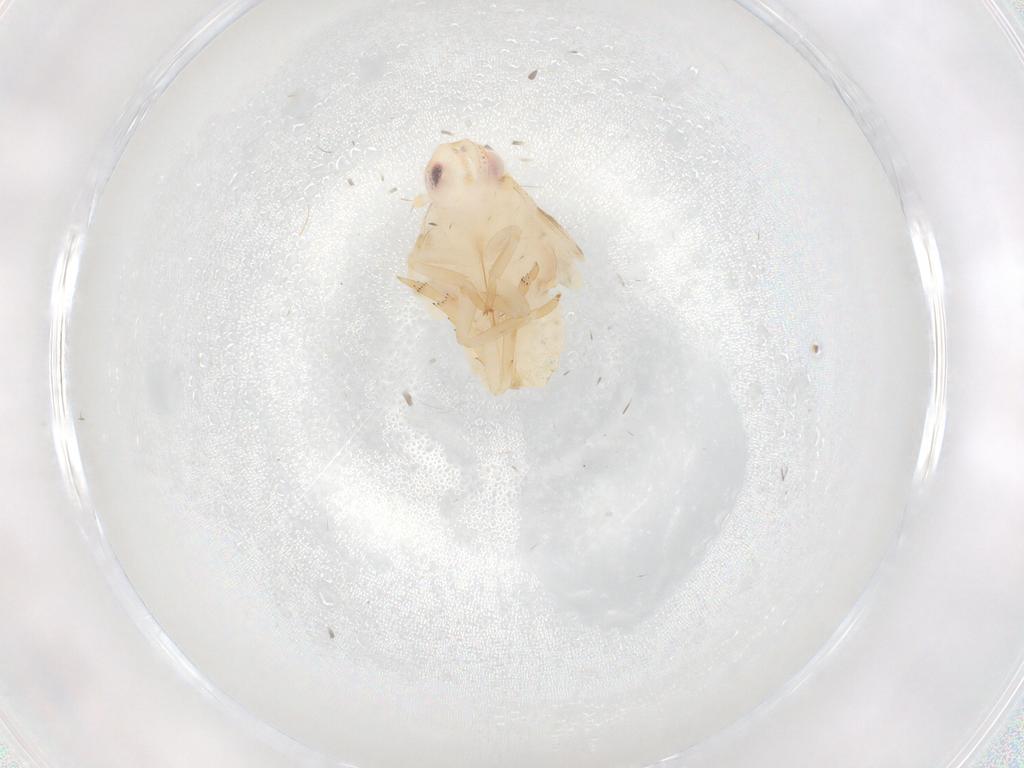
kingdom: Animalia
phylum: Arthropoda
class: Insecta
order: Hemiptera
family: Flatidae
